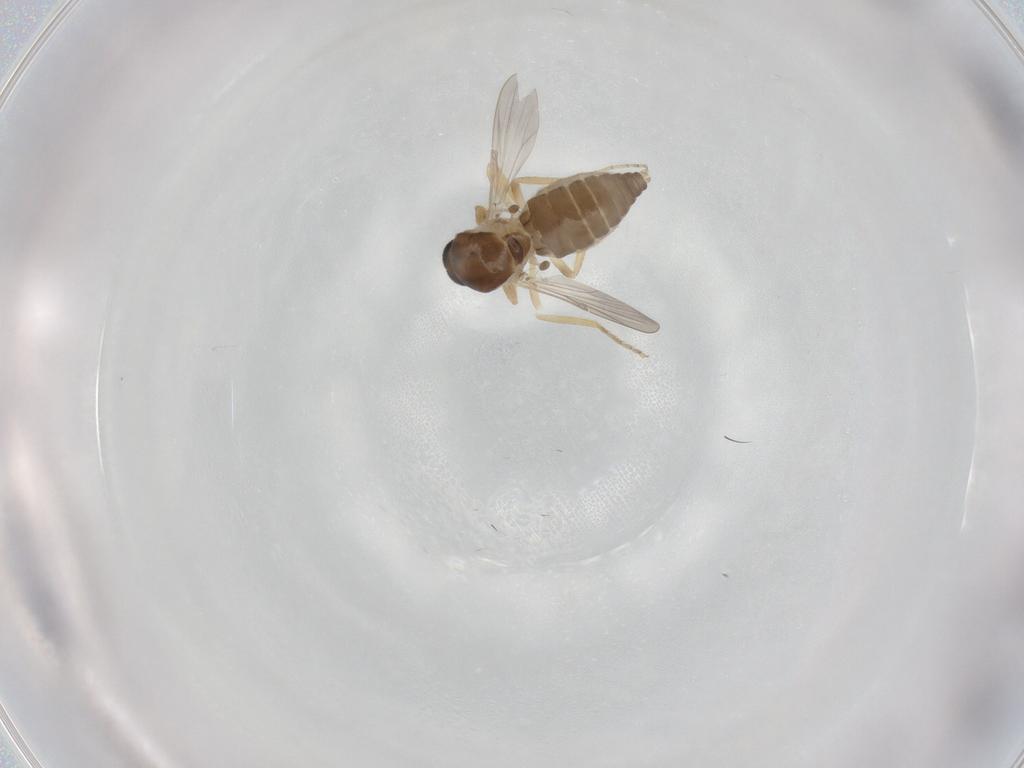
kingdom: Animalia
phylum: Arthropoda
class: Insecta
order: Diptera
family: Ceratopogonidae
